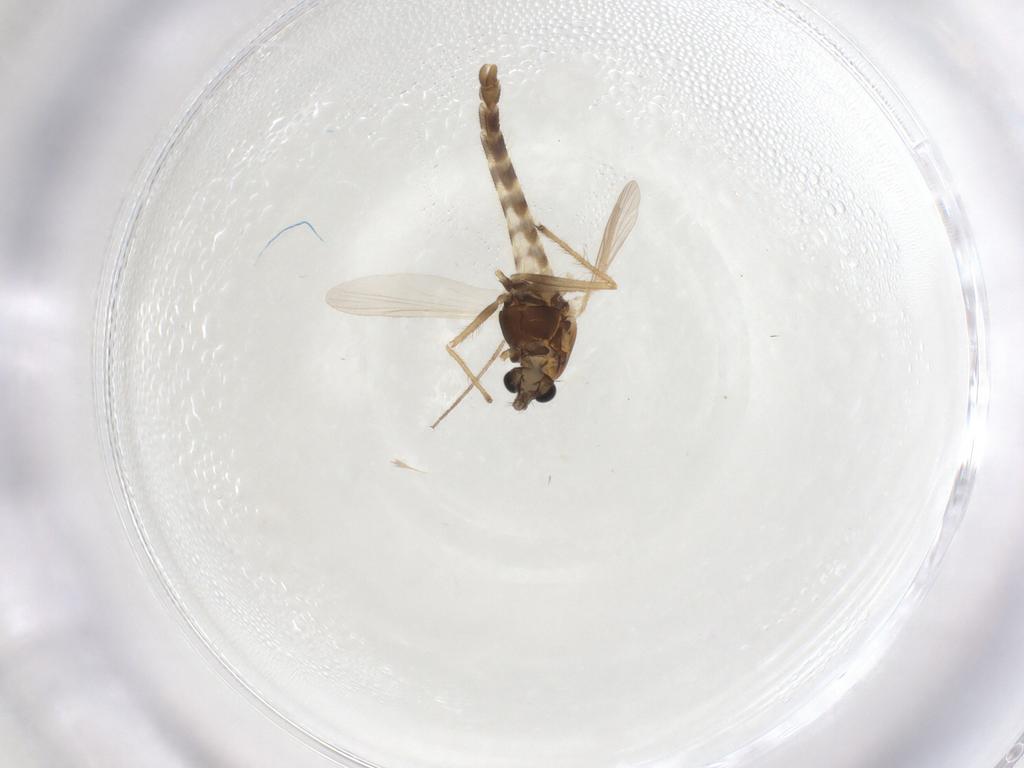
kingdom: Animalia
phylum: Arthropoda
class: Insecta
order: Diptera
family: Chironomidae
